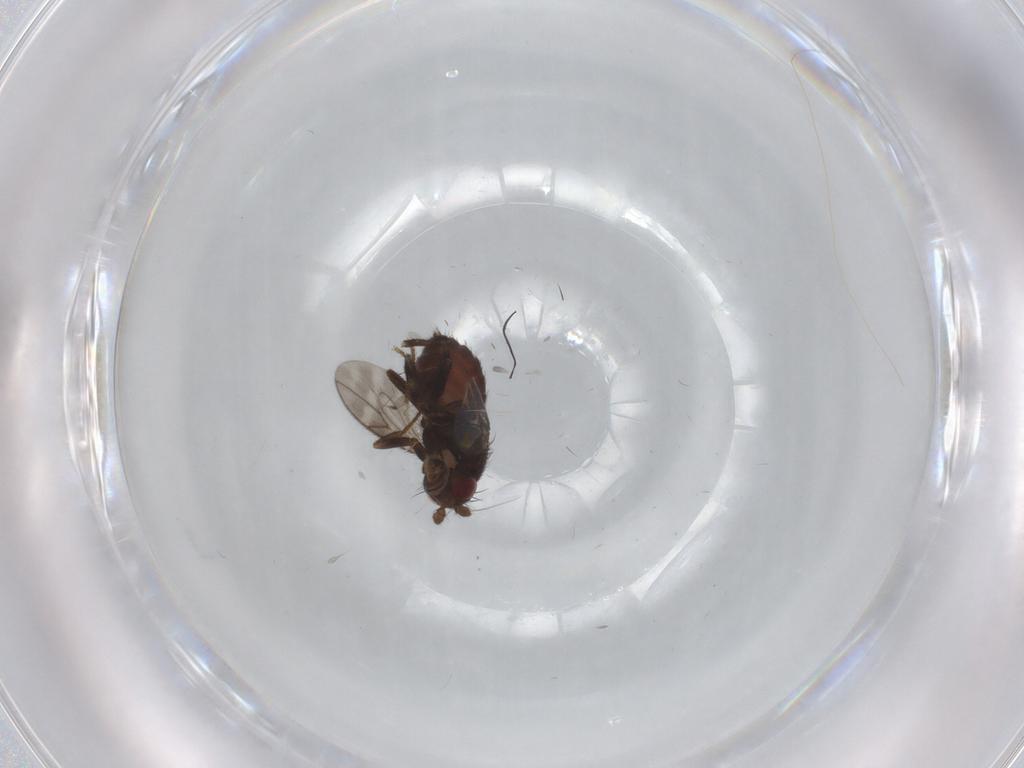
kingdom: Animalia
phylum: Arthropoda
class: Insecta
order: Diptera
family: Sphaeroceridae
